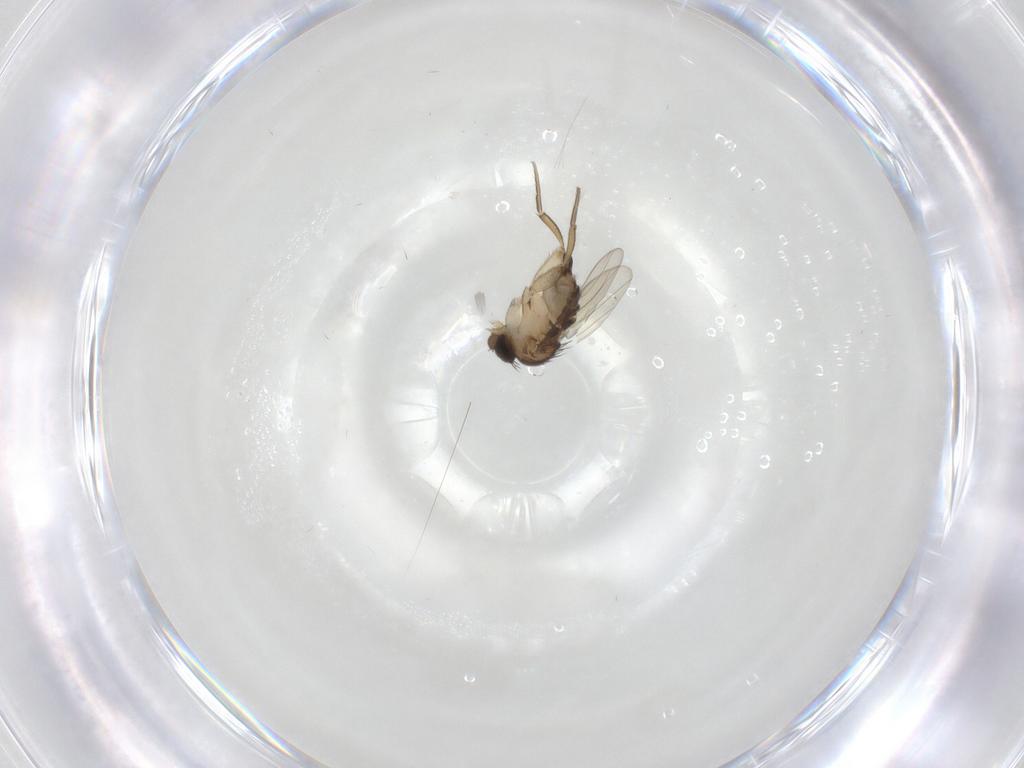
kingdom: Animalia
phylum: Arthropoda
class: Insecta
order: Diptera
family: Phoridae
